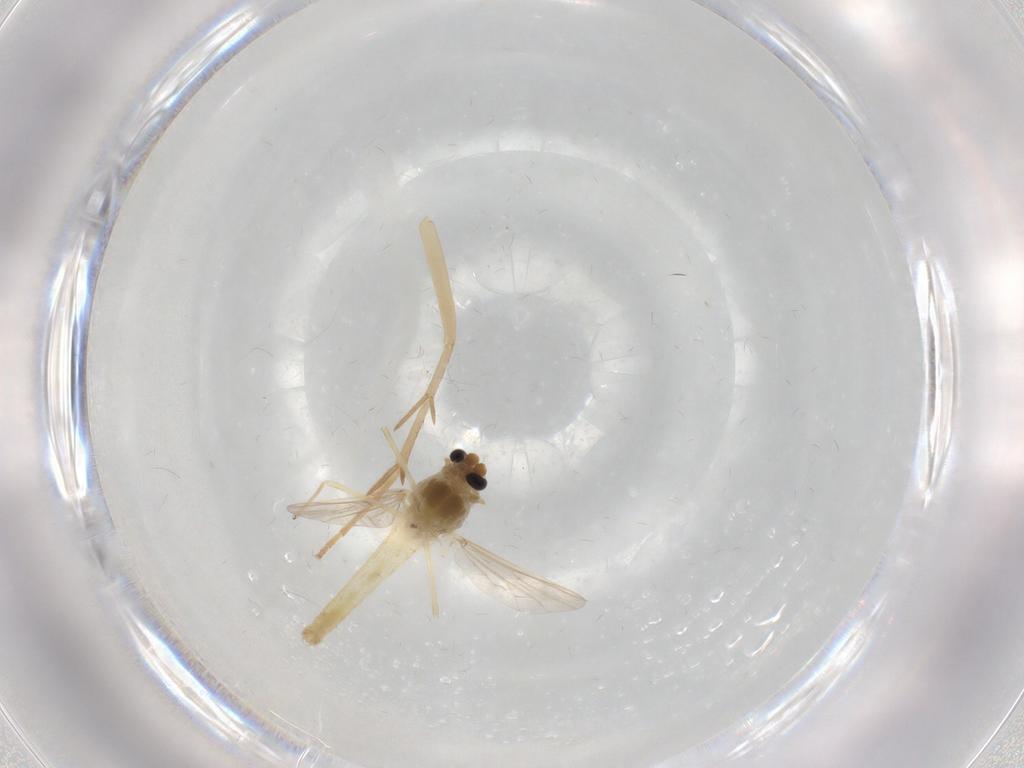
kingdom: Animalia
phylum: Arthropoda
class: Insecta
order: Diptera
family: Chironomidae
